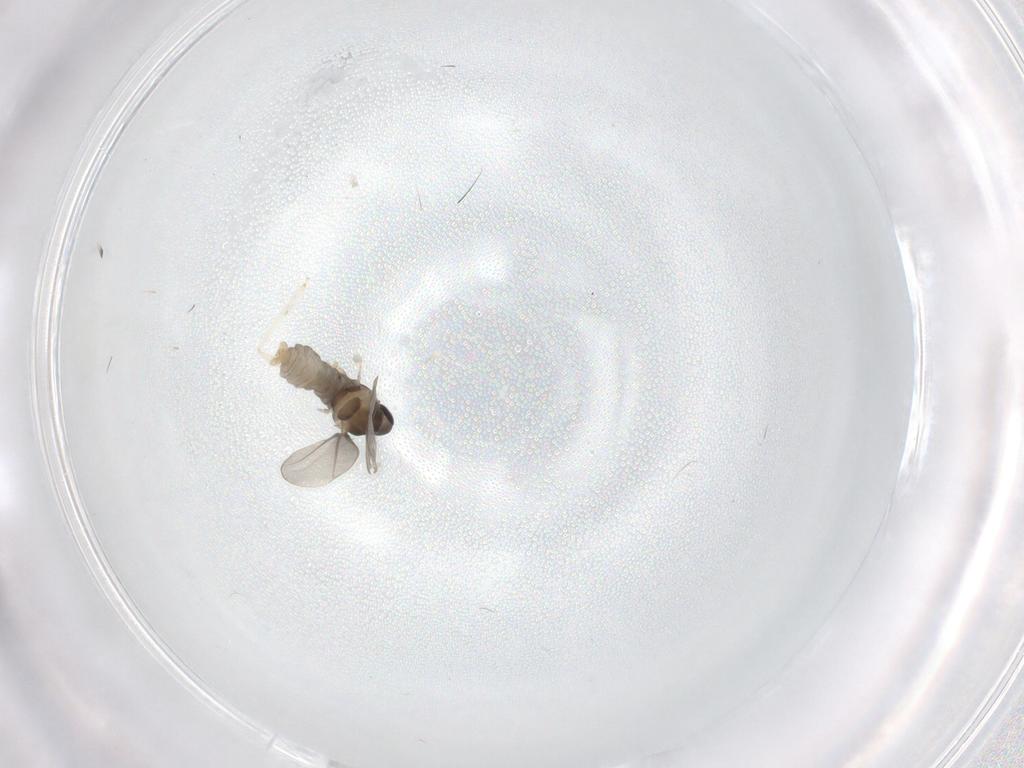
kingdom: Animalia
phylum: Arthropoda
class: Insecta
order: Diptera
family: Cecidomyiidae
